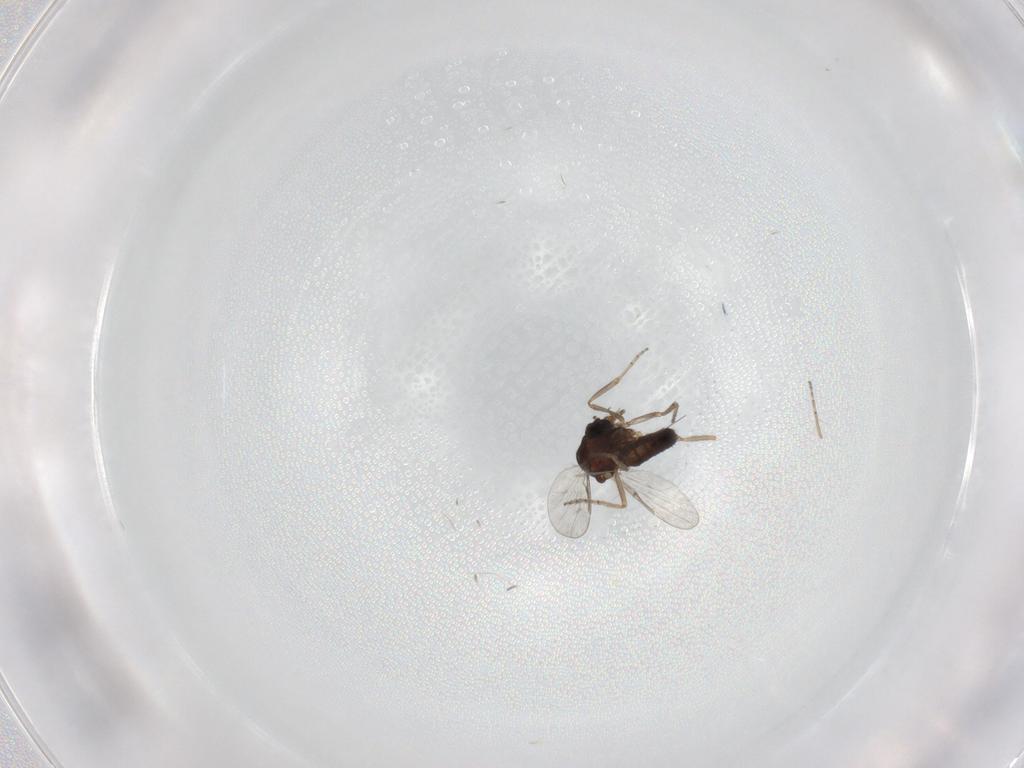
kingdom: Animalia
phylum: Arthropoda
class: Insecta
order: Diptera
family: Ceratopogonidae
